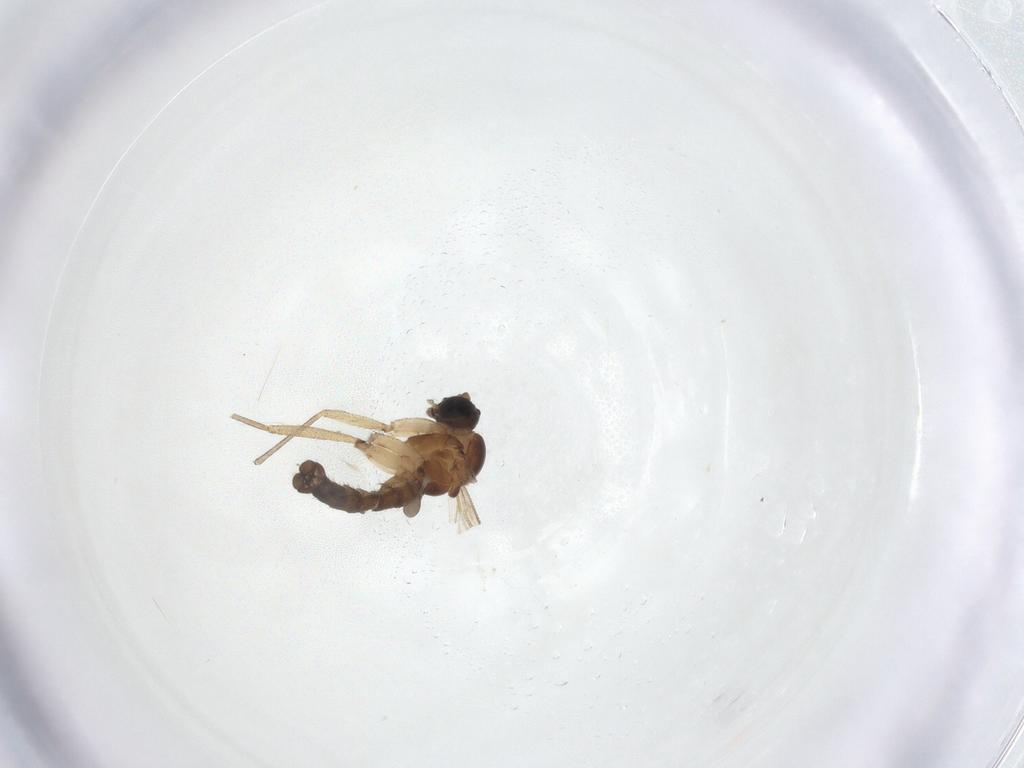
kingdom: Animalia
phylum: Arthropoda
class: Insecta
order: Diptera
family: Sciaridae
